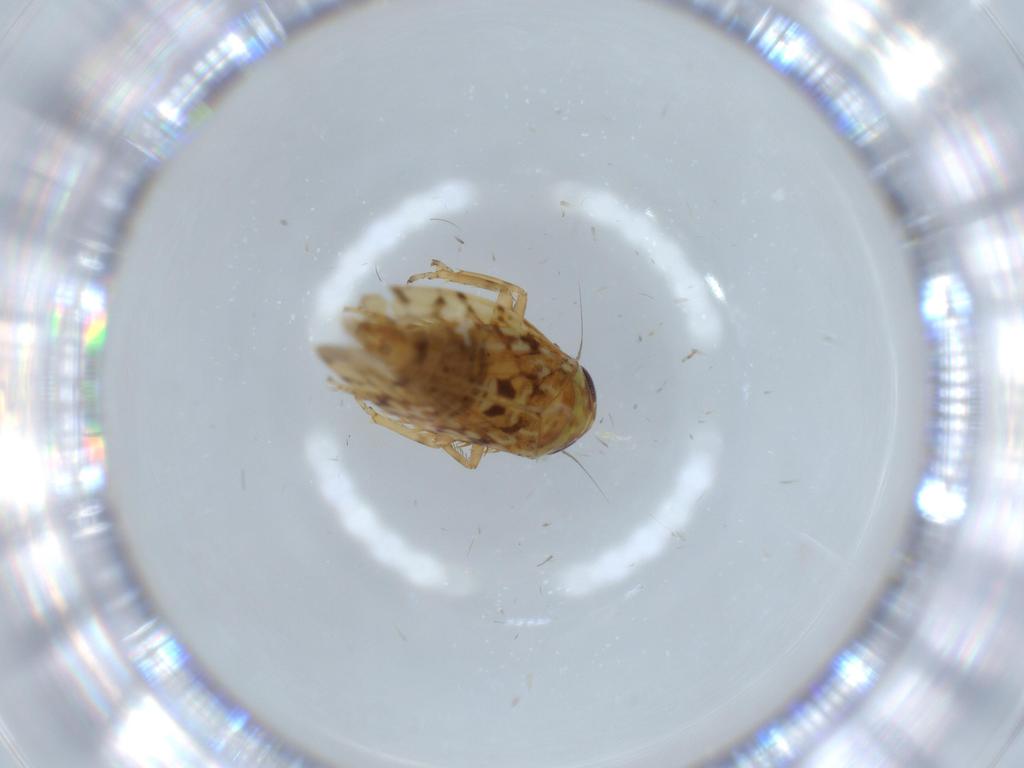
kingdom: Animalia
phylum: Arthropoda
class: Insecta
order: Hemiptera
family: Cicadellidae
